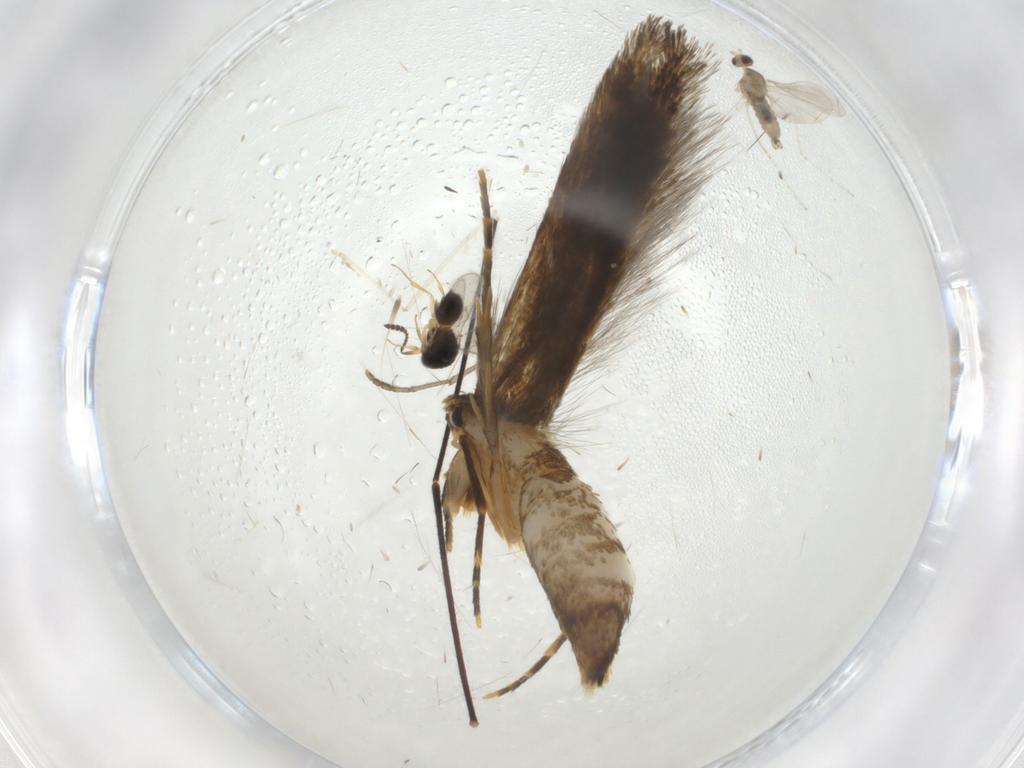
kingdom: Animalia
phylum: Arthropoda
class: Insecta
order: Lepidoptera
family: Tineidae
